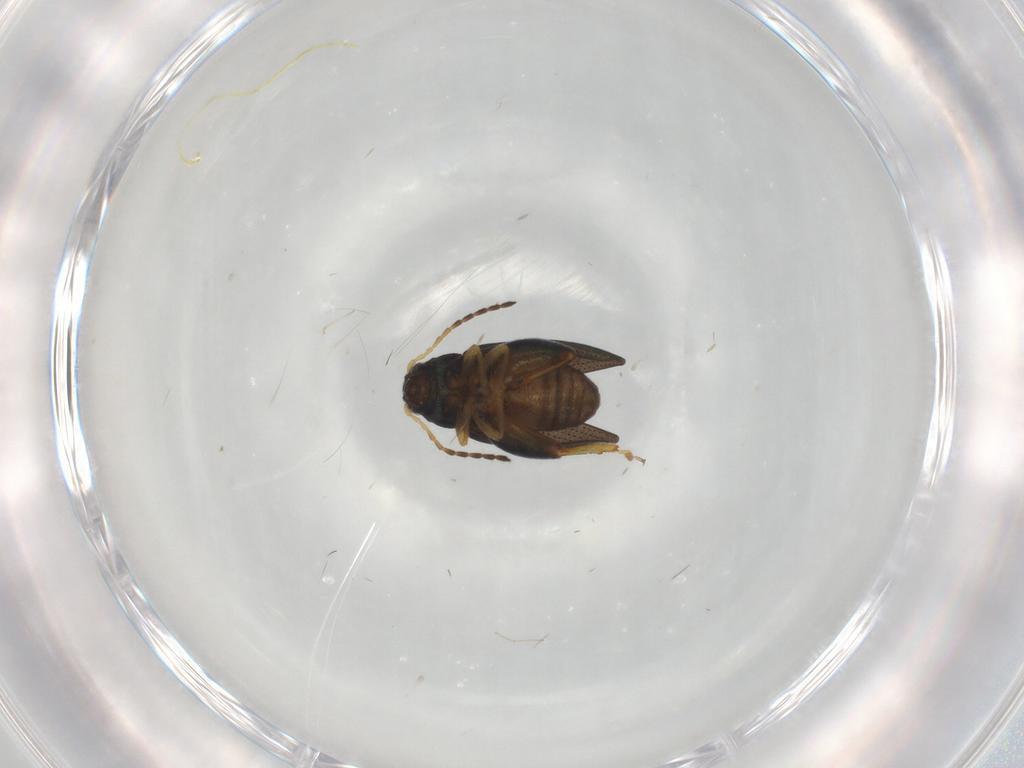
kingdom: Animalia
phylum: Arthropoda
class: Insecta
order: Coleoptera
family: Chrysomelidae
